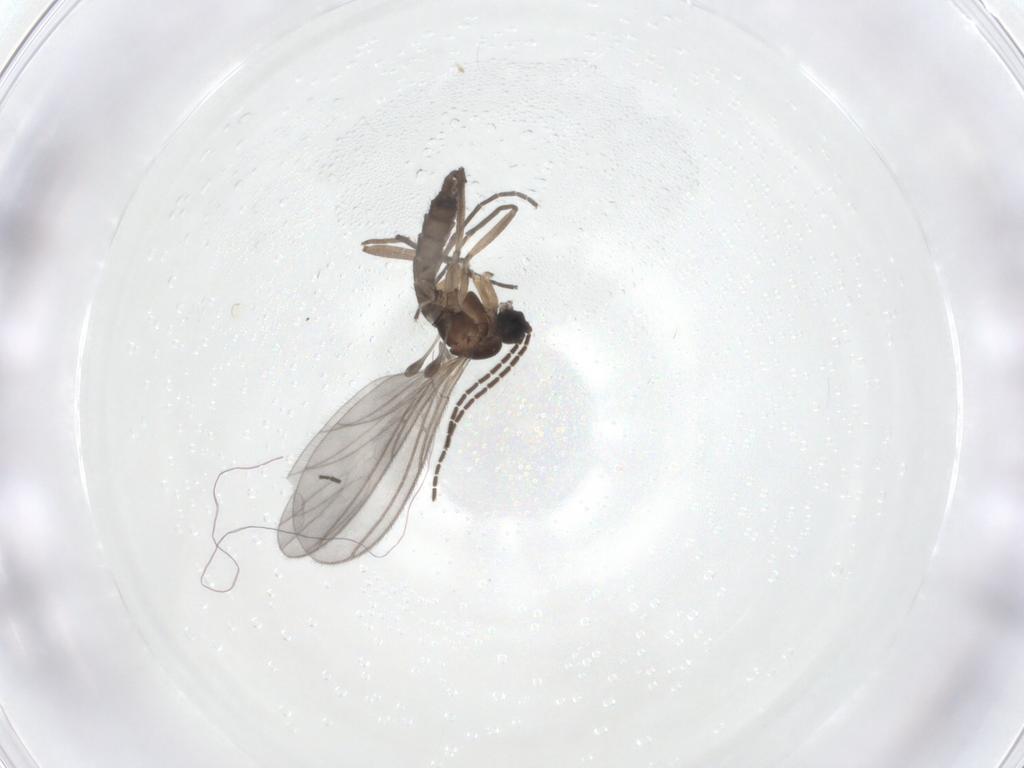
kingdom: Animalia
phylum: Arthropoda
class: Insecta
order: Diptera
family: Sciaridae
